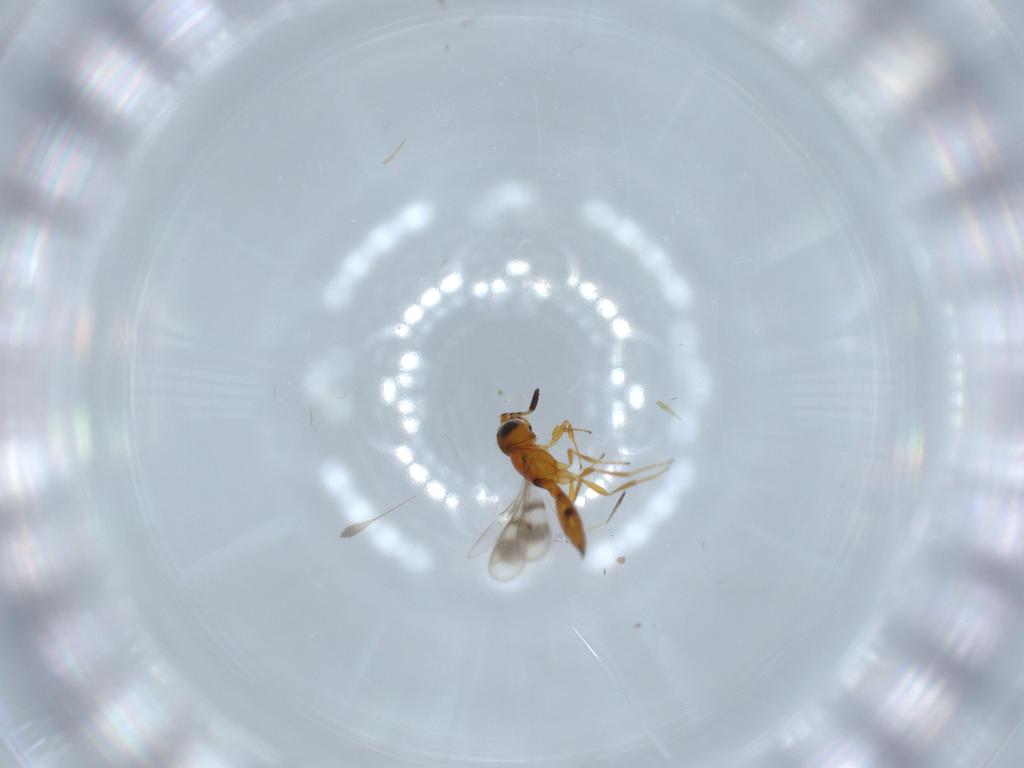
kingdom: Animalia
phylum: Arthropoda
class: Insecta
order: Hymenoptera
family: Scelionidae
